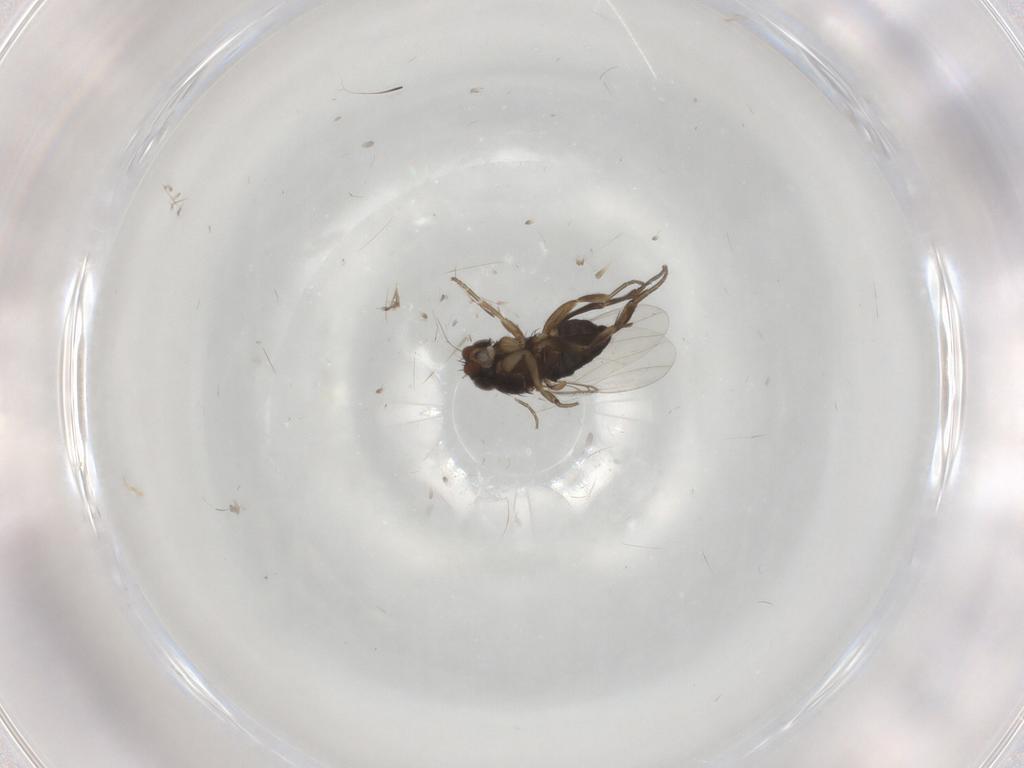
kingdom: Animalia
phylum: Arthropoda
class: Insecta
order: Diptera
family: Phoridae
